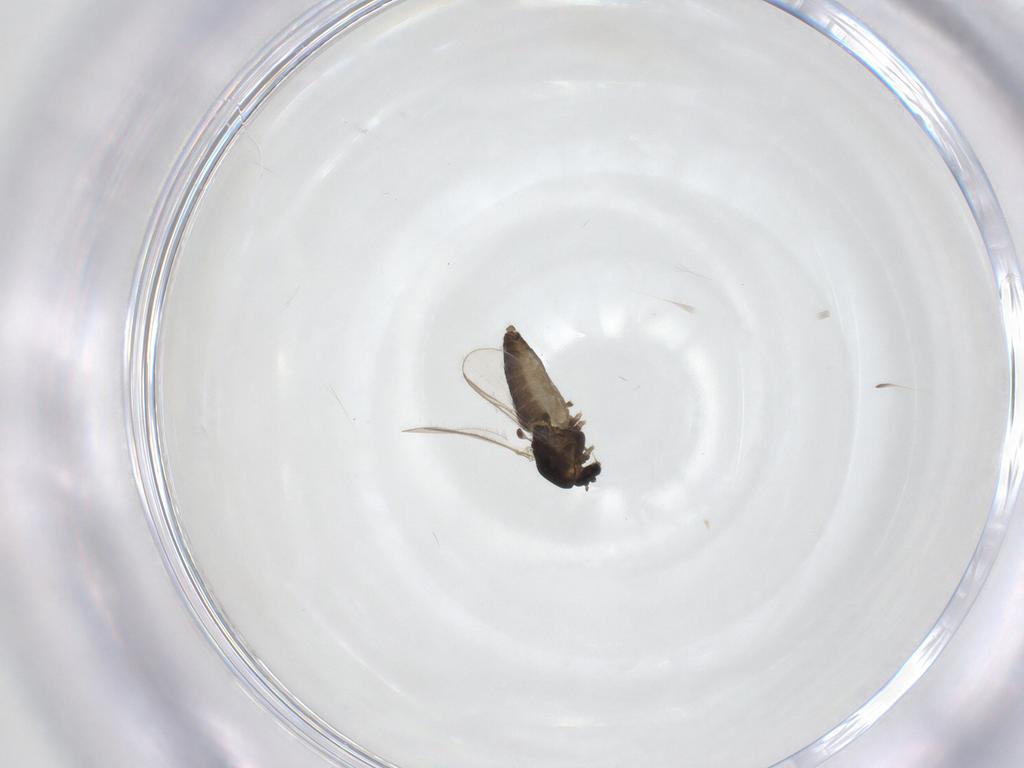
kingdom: Animalia
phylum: Arthropoda
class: Insecta
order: Diptera
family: Chironomidae
